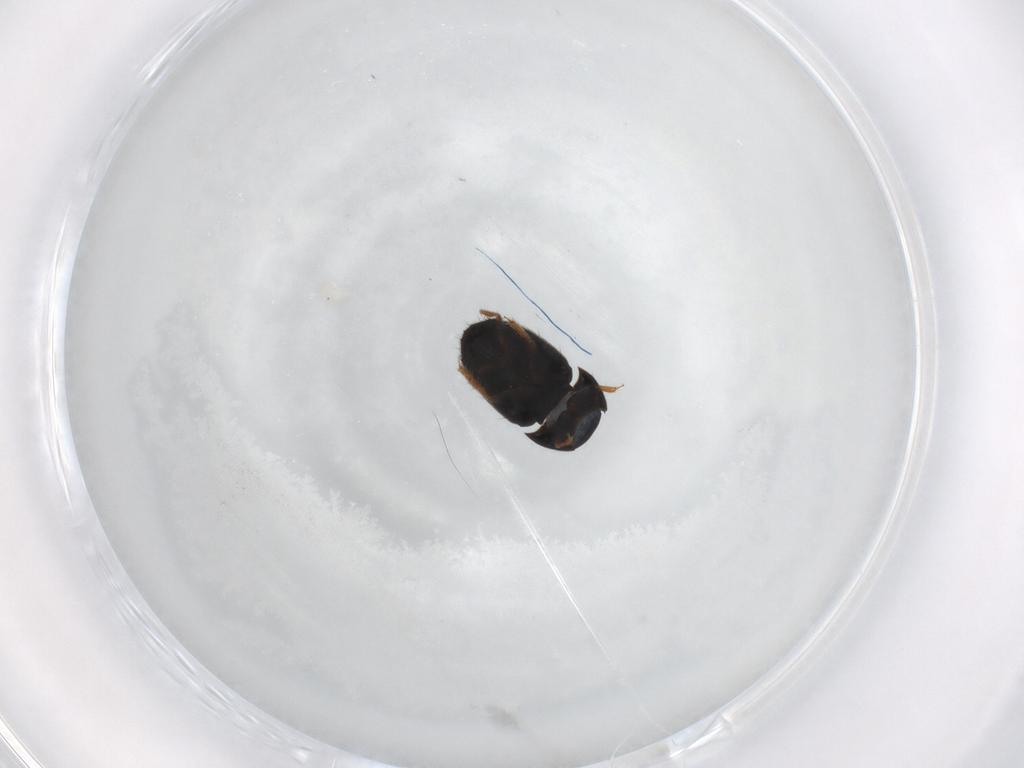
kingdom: Animalia
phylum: Arthropoda
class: Insecta
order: Coleoptera
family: Ptiliidae
